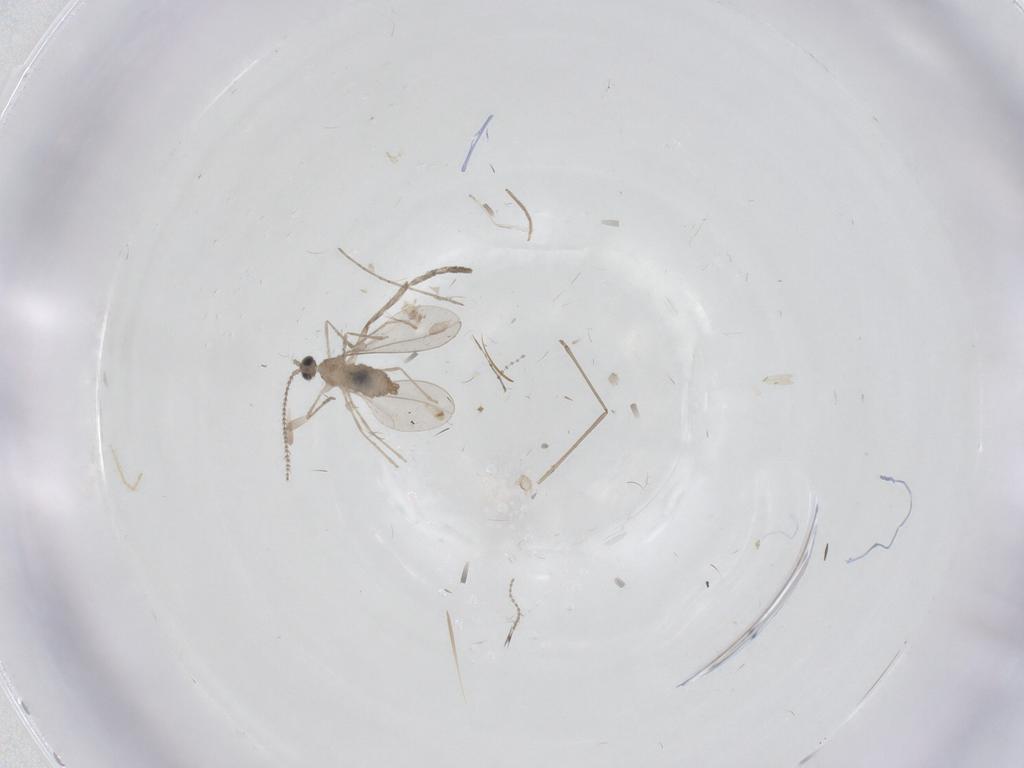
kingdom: Animalia
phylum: Arthropoda
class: Insecta
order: Diptera
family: Cecidomyiidae
